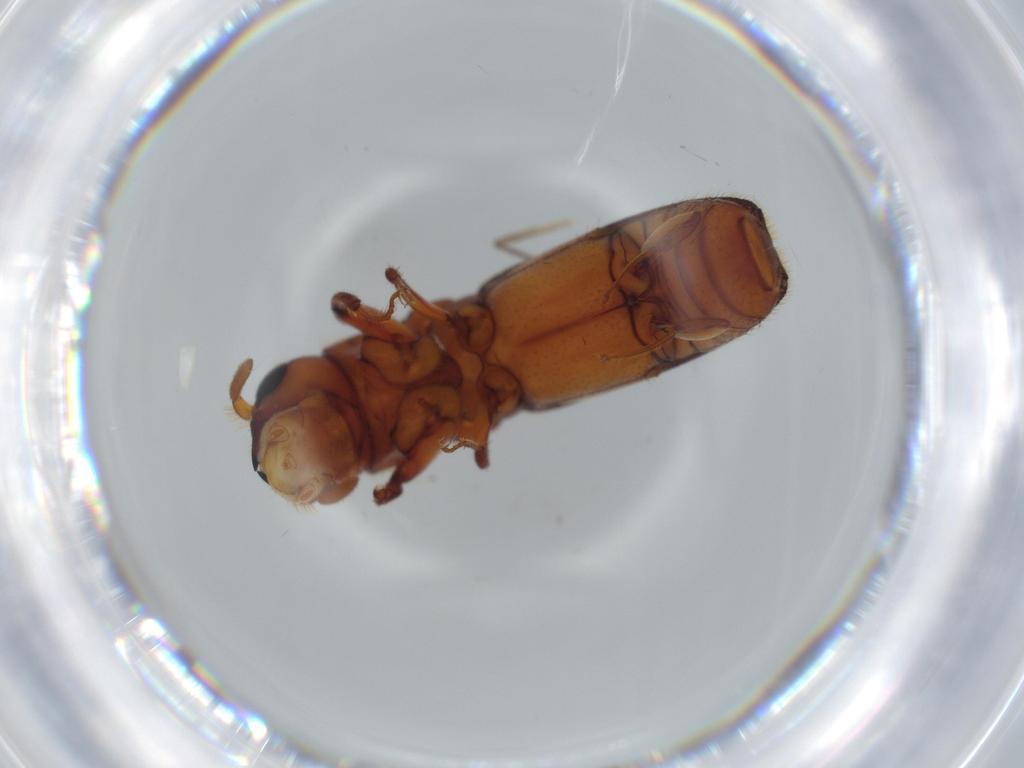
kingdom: Animalia
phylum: Arthropoda
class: Insecta
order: Coleoptera
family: Curculionidae
